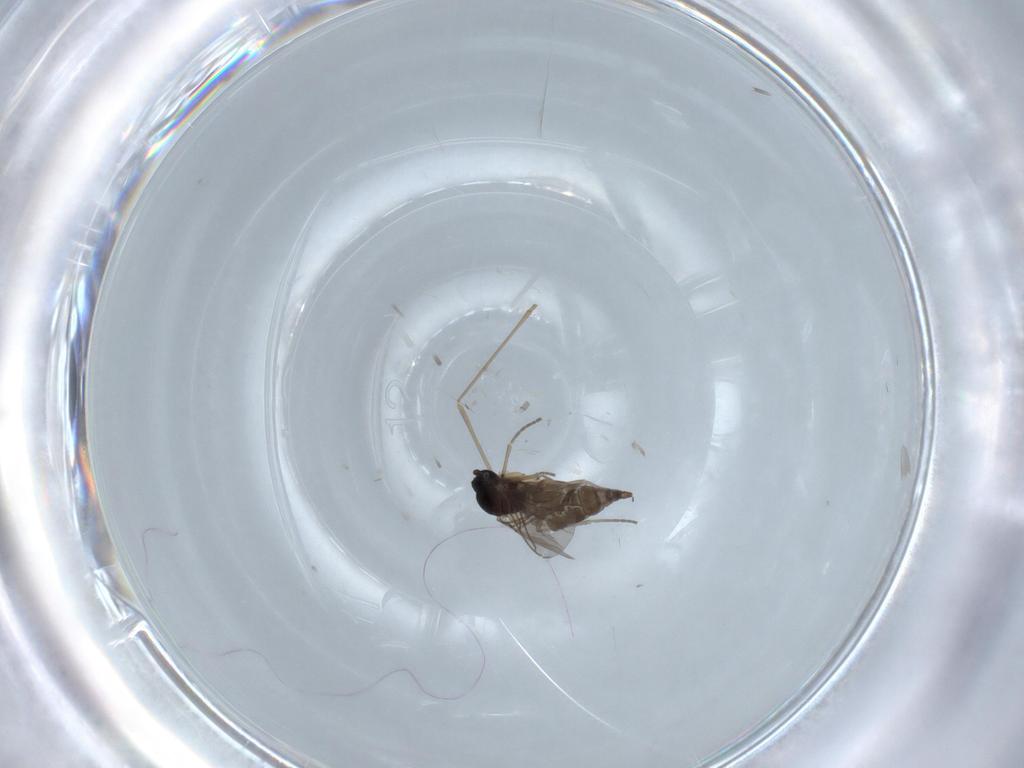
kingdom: Animalia
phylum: Arthropoda
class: Insecta
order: Diptera
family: Sciaridae
